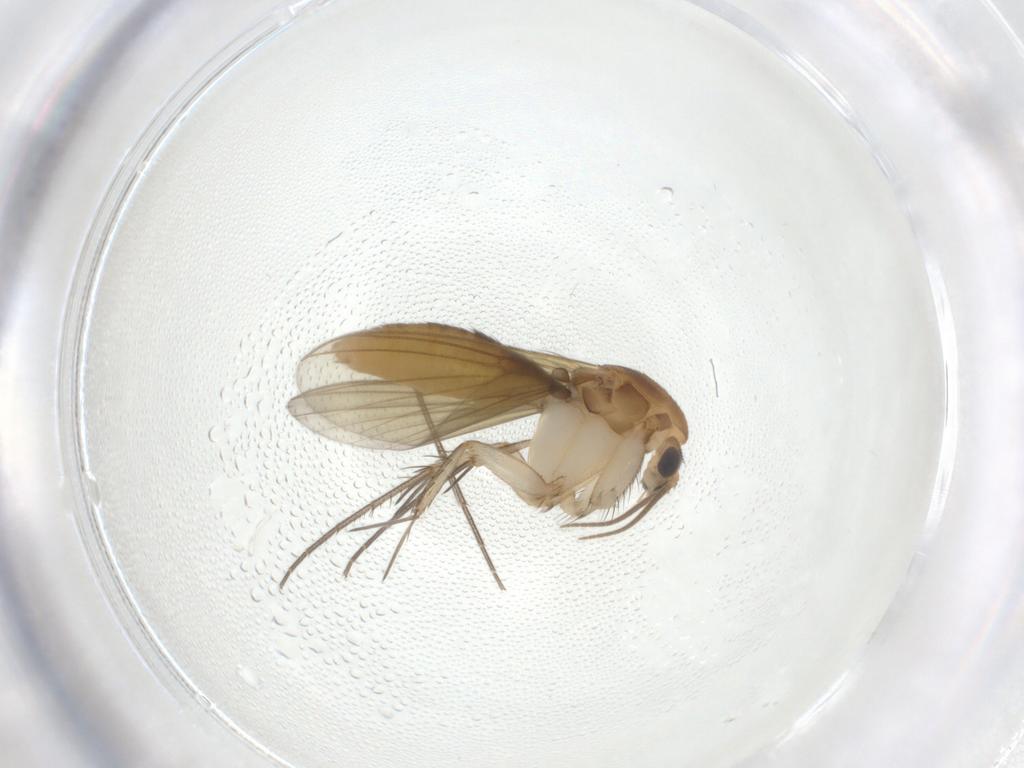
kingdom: Animalia
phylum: Arthropoda
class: Insecta
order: Diptera
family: Mycetophilidae
